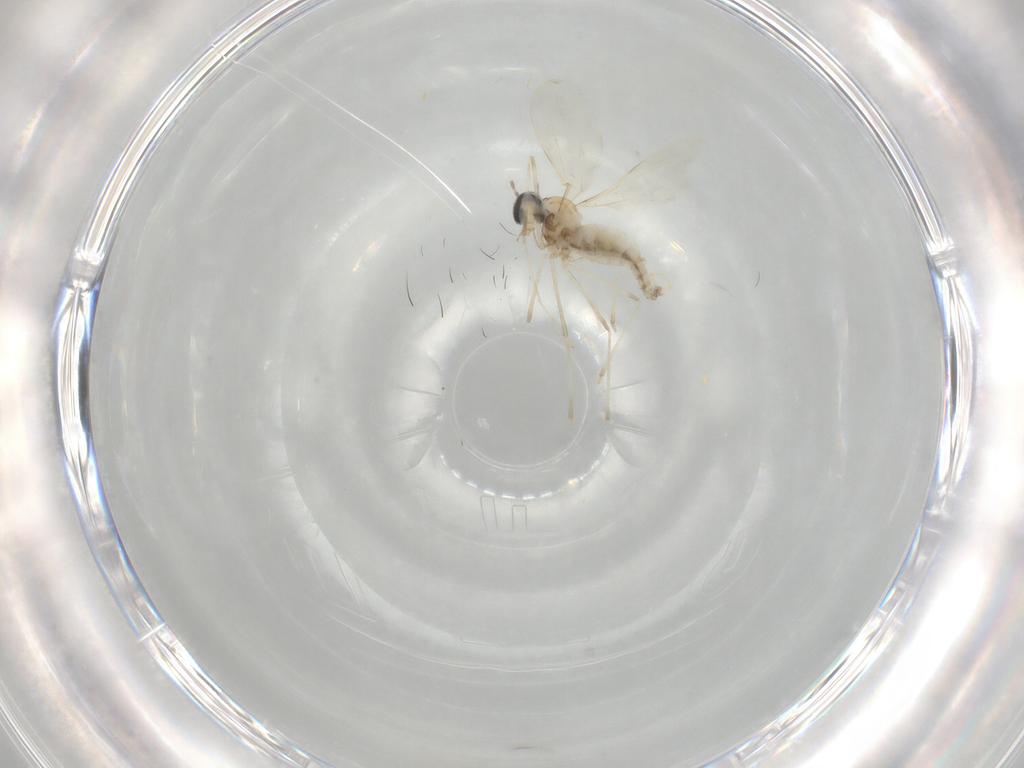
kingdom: Animalia
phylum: Arthropoda
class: Insecta
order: Diptera
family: Cecidomyiidae
